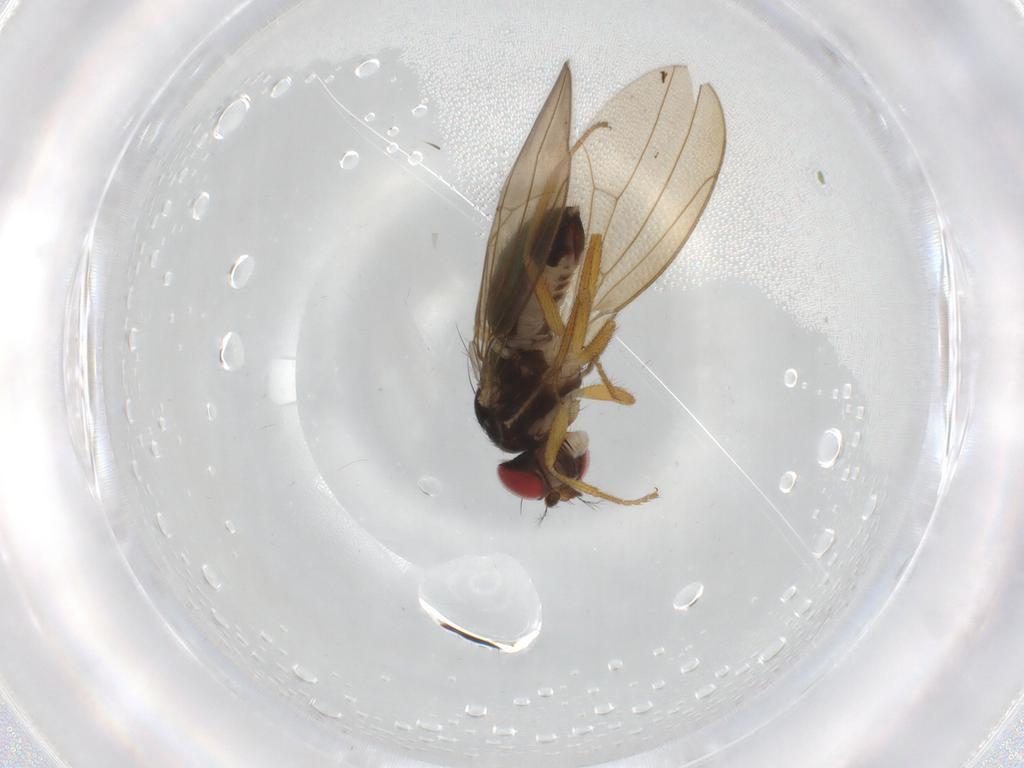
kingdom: Animalia
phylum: Arthropoda
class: Insecta
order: Diptera
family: Drosophilidae
